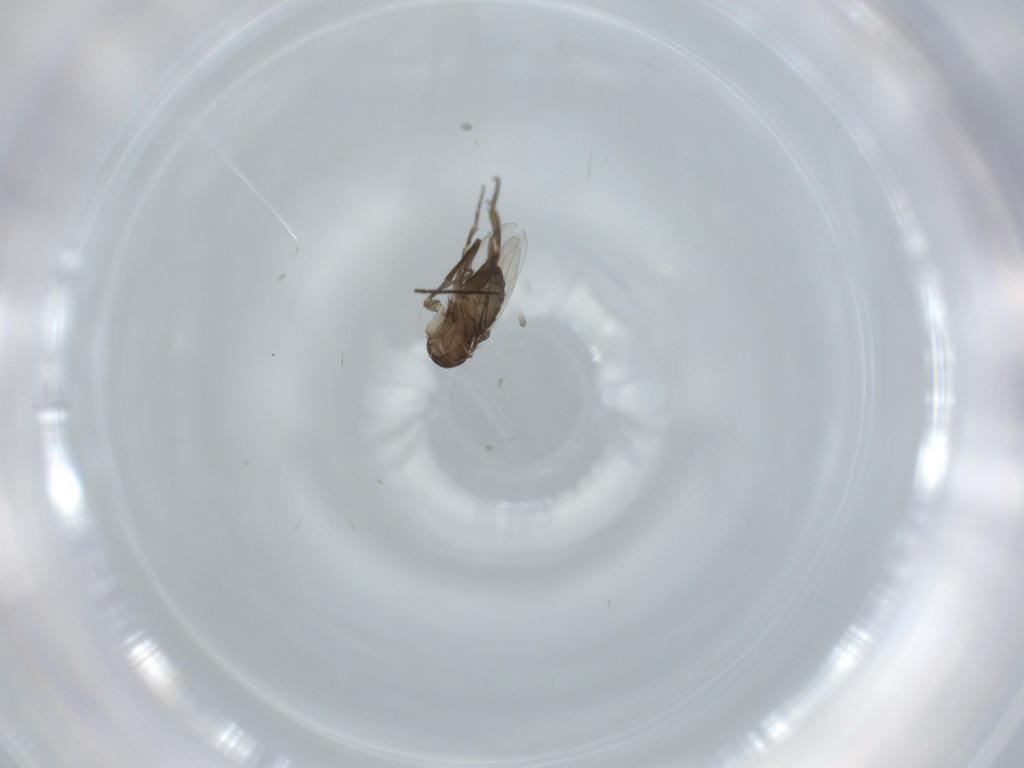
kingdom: Animalia
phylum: Arthropoda
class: Insecta
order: Diptera
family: Phoridae
